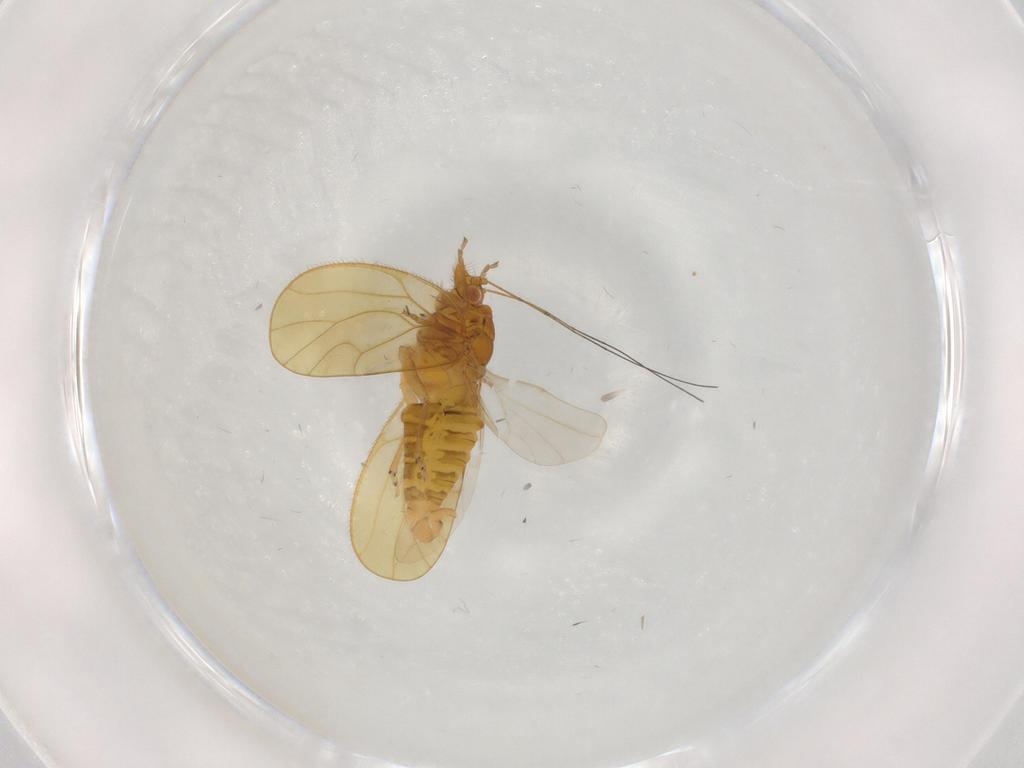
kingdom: Animalia
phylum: Arthropoda
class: Insecta
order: Hemiptera
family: Psyllidae
